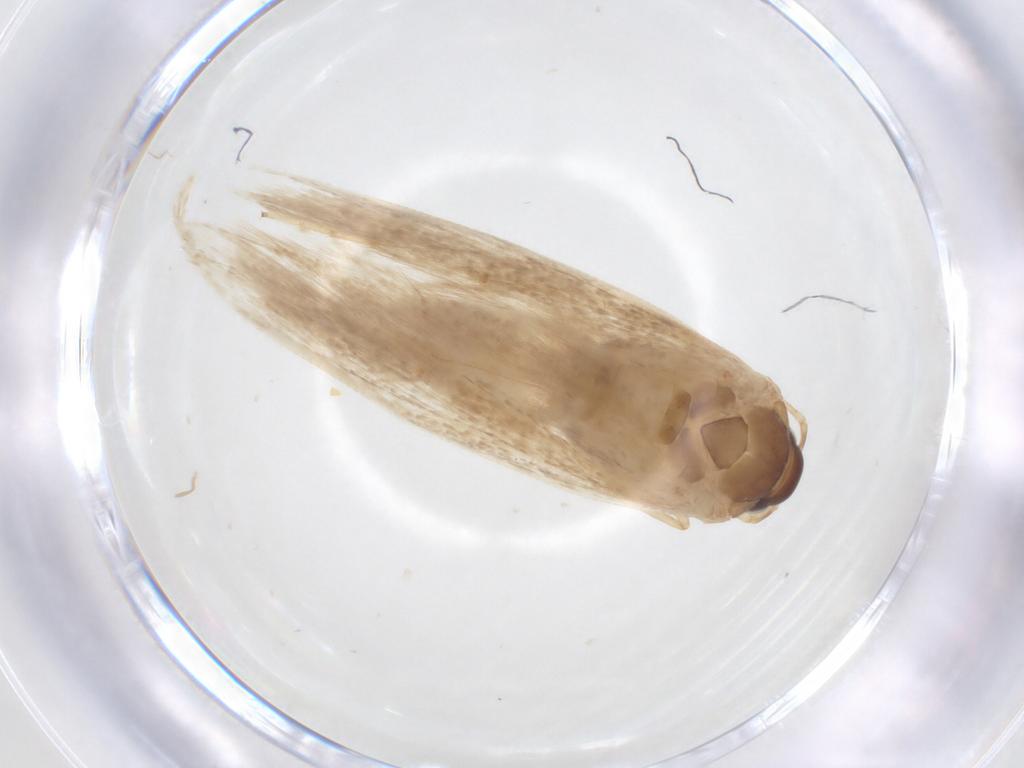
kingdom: Animalia
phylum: Arthropoda
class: Insecta
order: Lepidoptera
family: Gelechiidae
